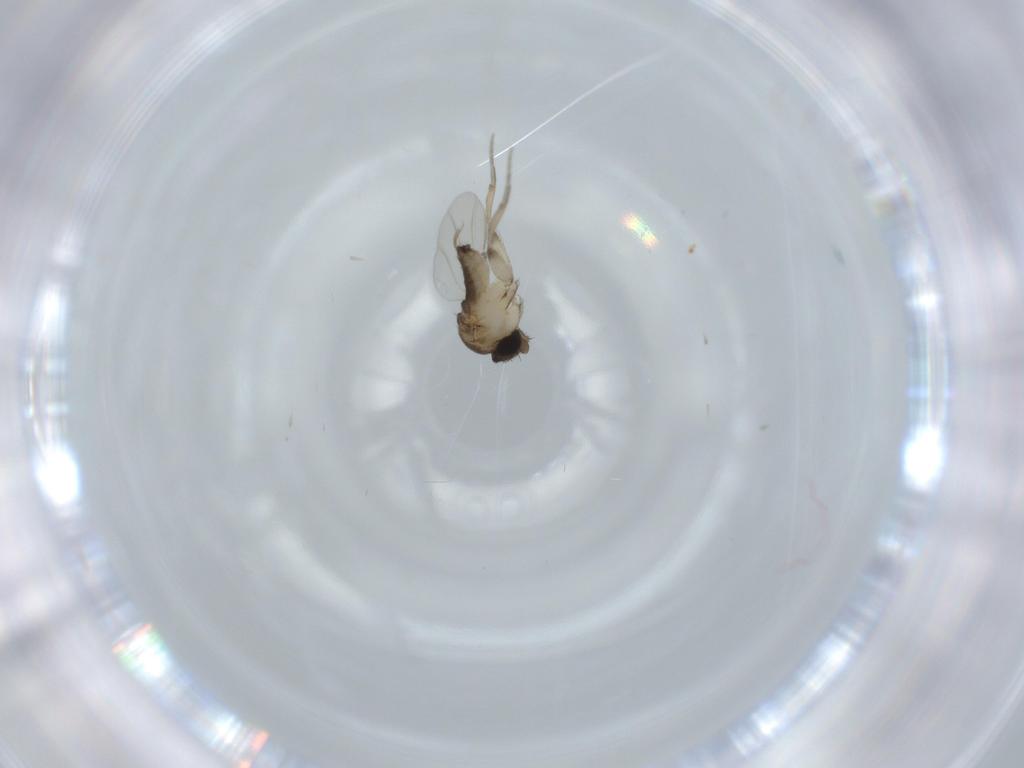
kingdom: Animalia
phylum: Arthropoda
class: Insecta
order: Diptera
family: Phoridae
